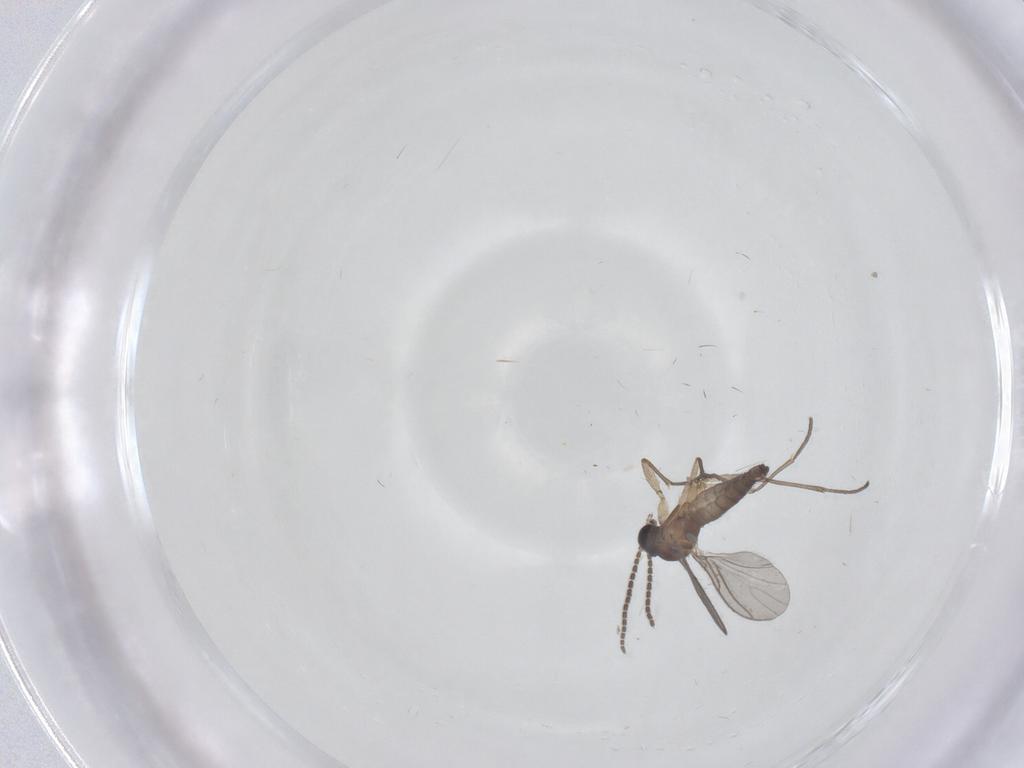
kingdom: Animalia
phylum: Arthropoda
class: Insecta
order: Diptera
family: Sciaridae
